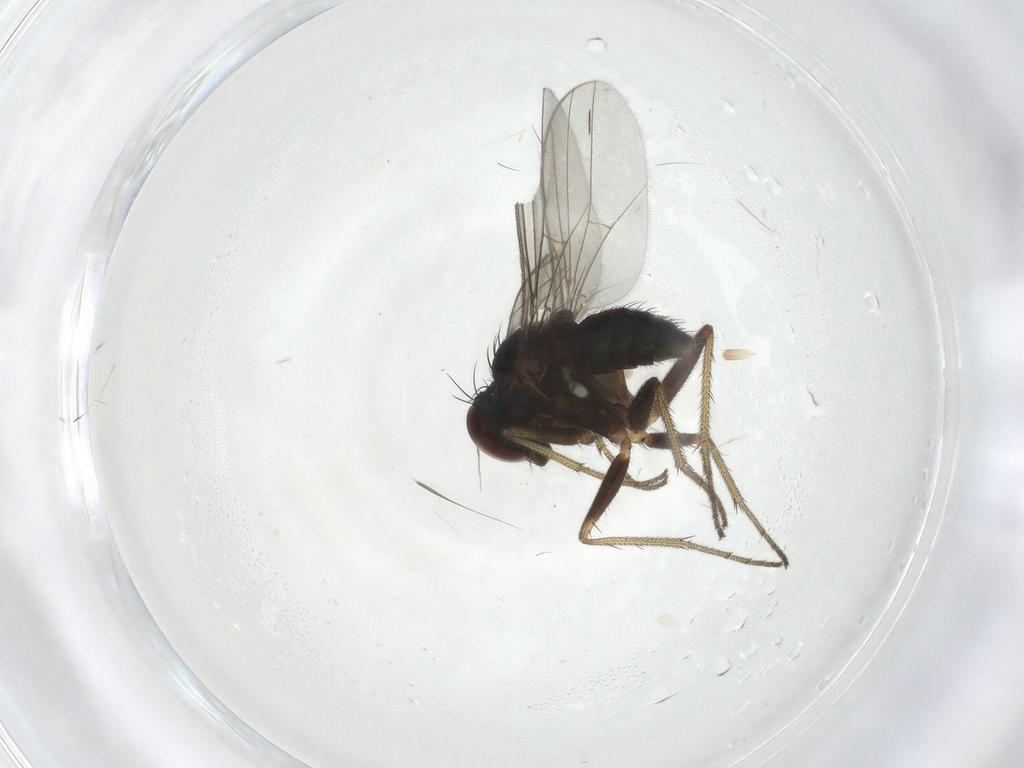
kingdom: Animalia
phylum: Arthropoda
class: Insecta
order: Diptera
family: Dolichopodidae
